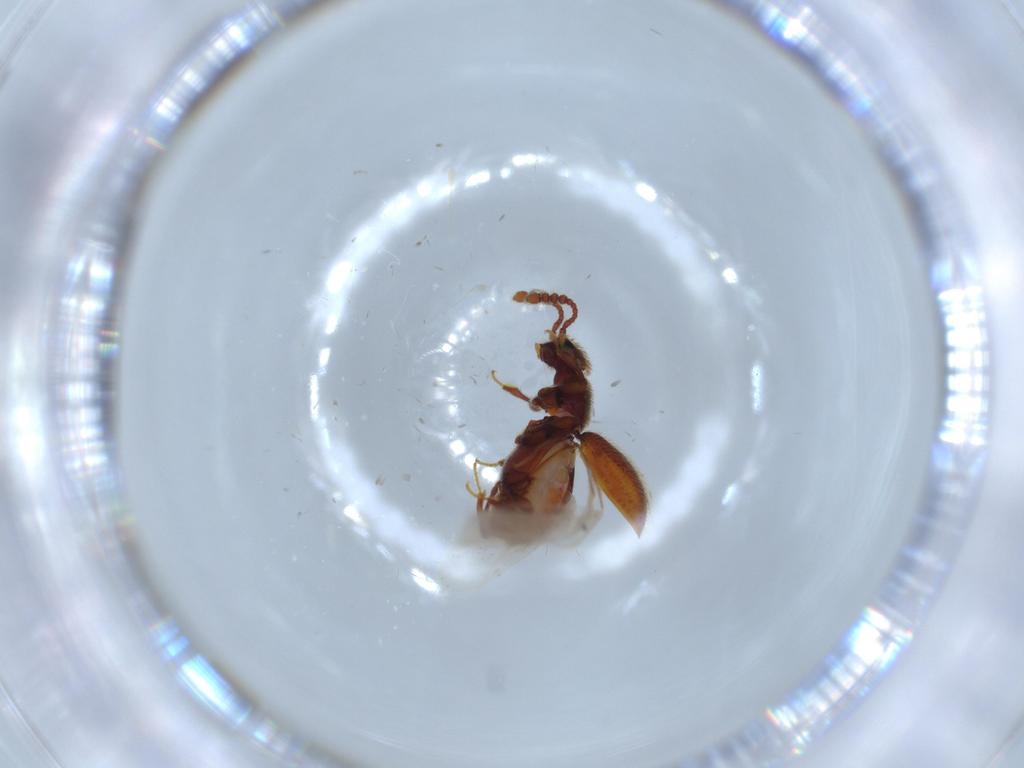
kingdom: Animalia
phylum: Arthropoda
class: Insecta
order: Coleoptera
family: Staphylinidae
